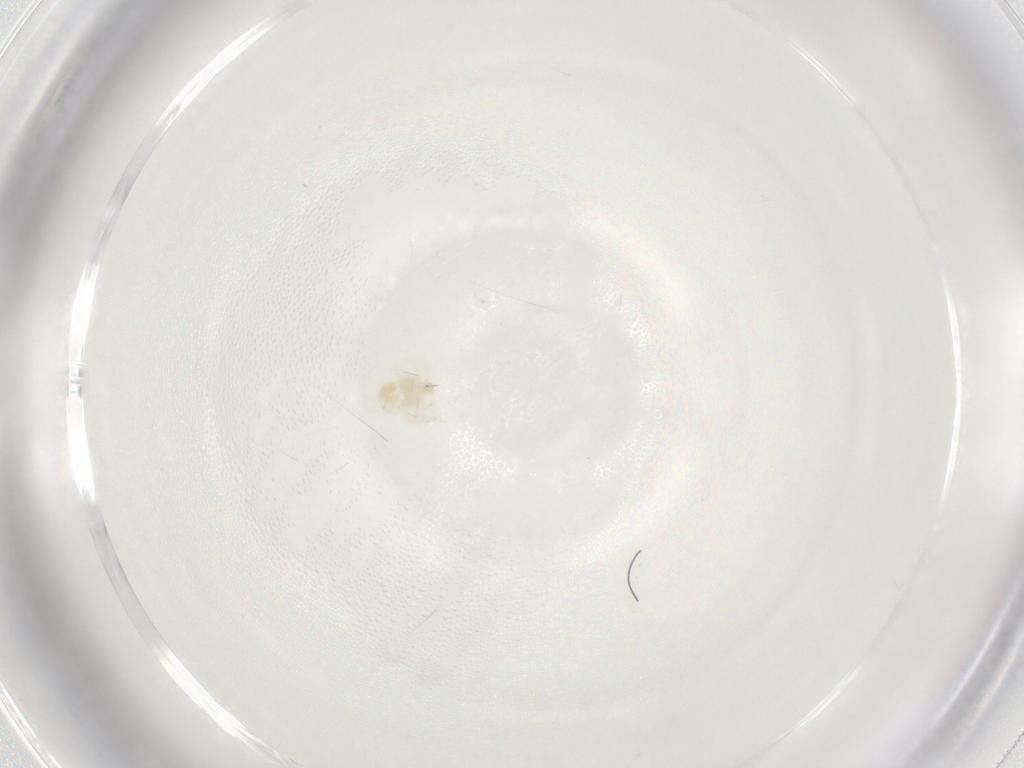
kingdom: Animalia
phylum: Arthropoda
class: Arachnida
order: Trombidiformes
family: Anystidae
